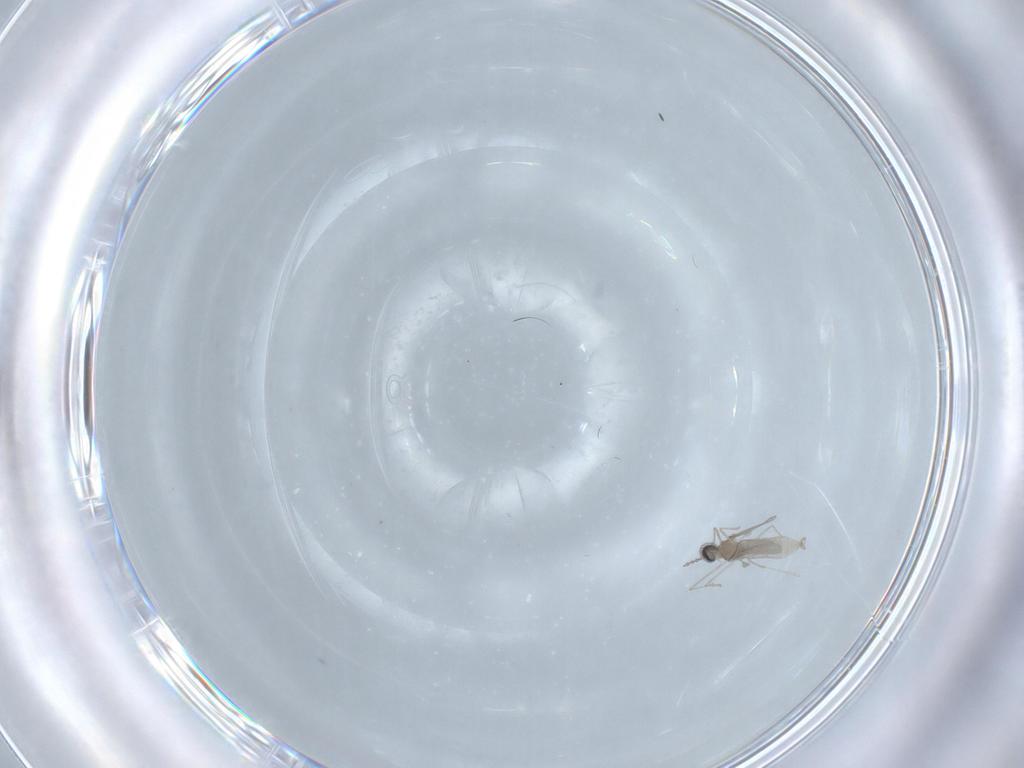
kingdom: Animalia
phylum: Arthropoda
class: Insecta
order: Diptera
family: Cecidomyiidae
